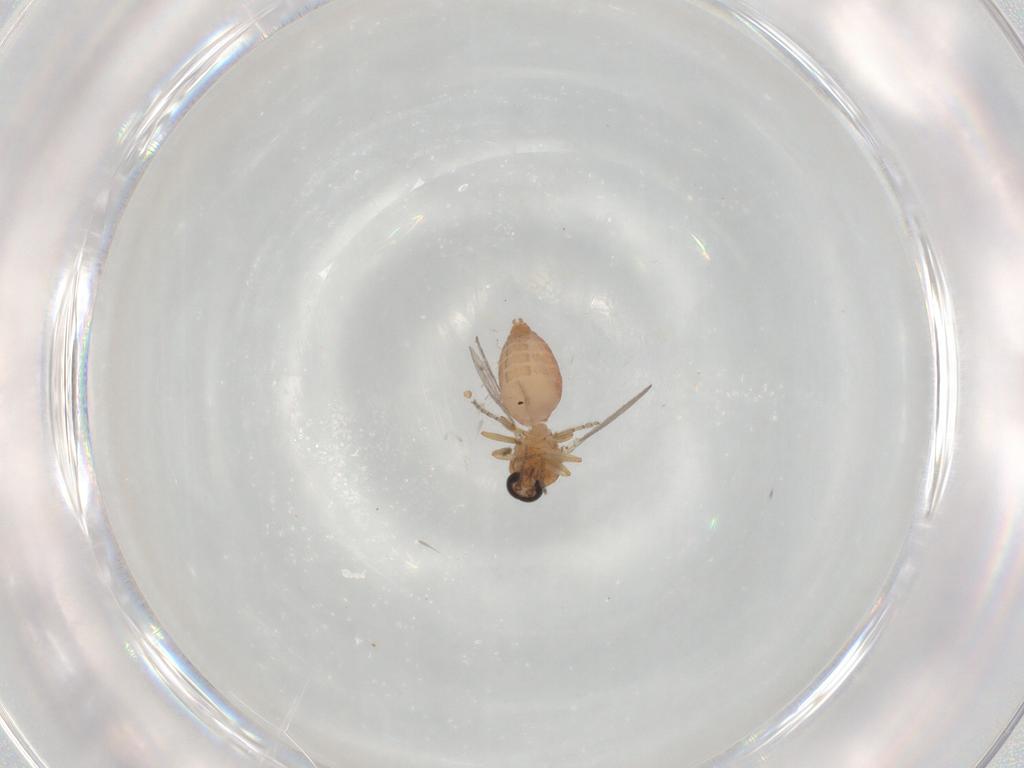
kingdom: Animalia
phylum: Arthropoda
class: Insecta
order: Diptera
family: Ceratopogonidae
